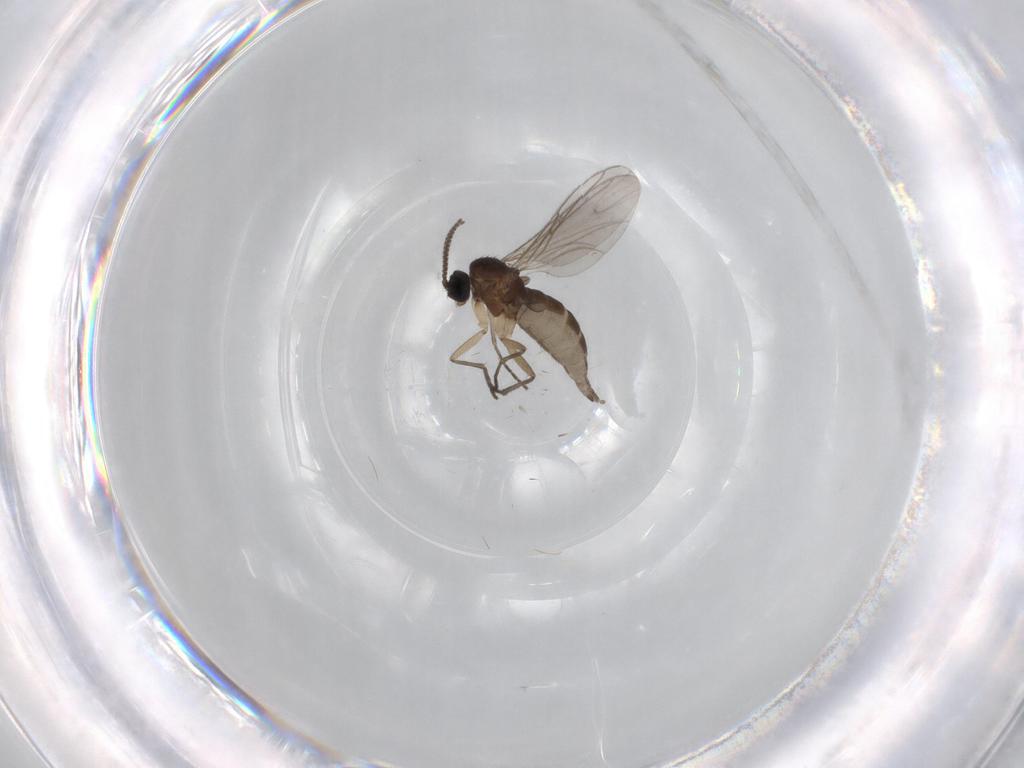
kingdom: Animalia
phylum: Arthropoda
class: Insecta
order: Diptera
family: Sciaridae
